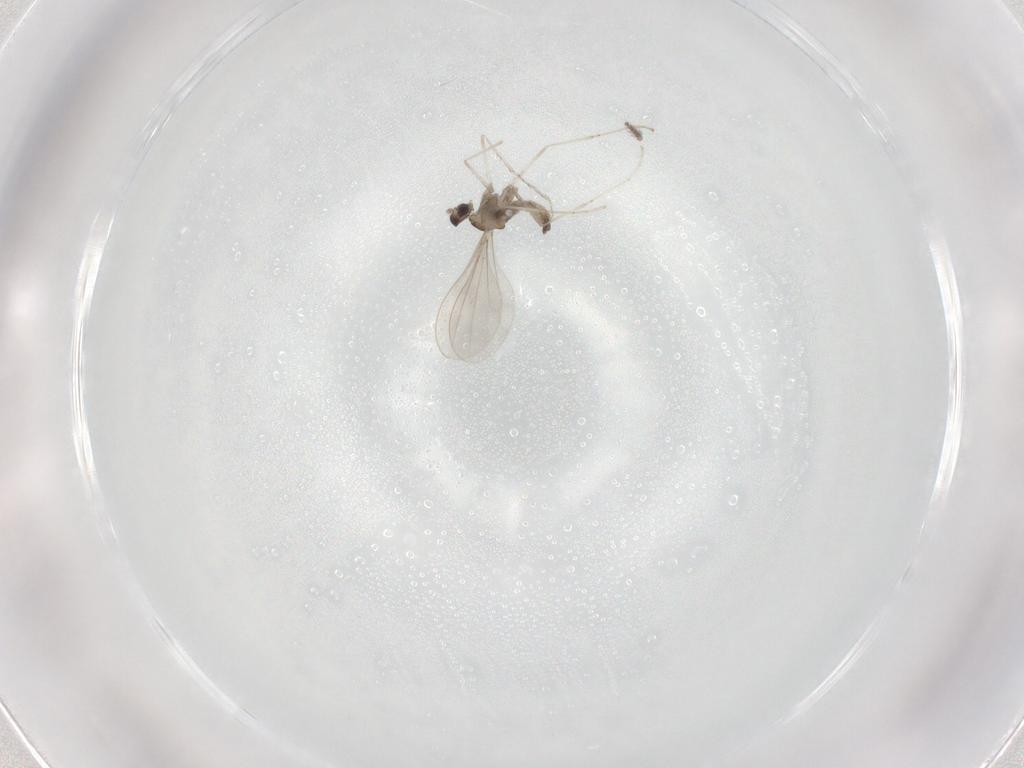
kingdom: Animalia
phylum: Arthropoda
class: Insecta
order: Diptera
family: Cecidomyiidae
